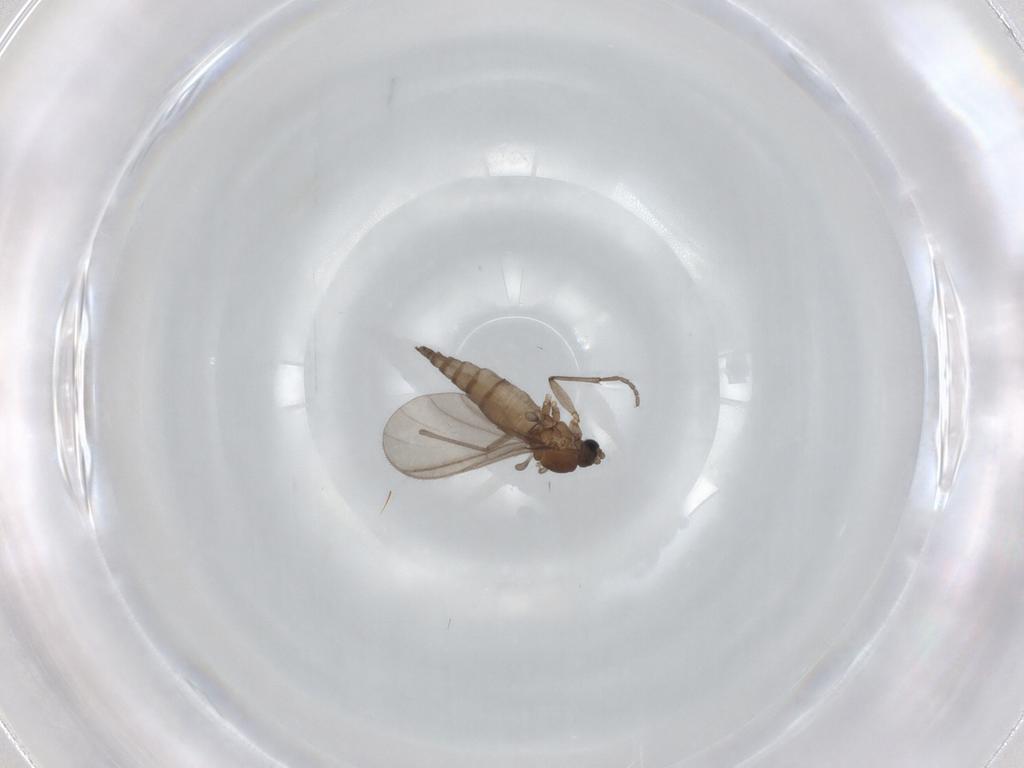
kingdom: Animalia
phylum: Arthropoda
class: Insecta
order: Diptera
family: Sciaridae
